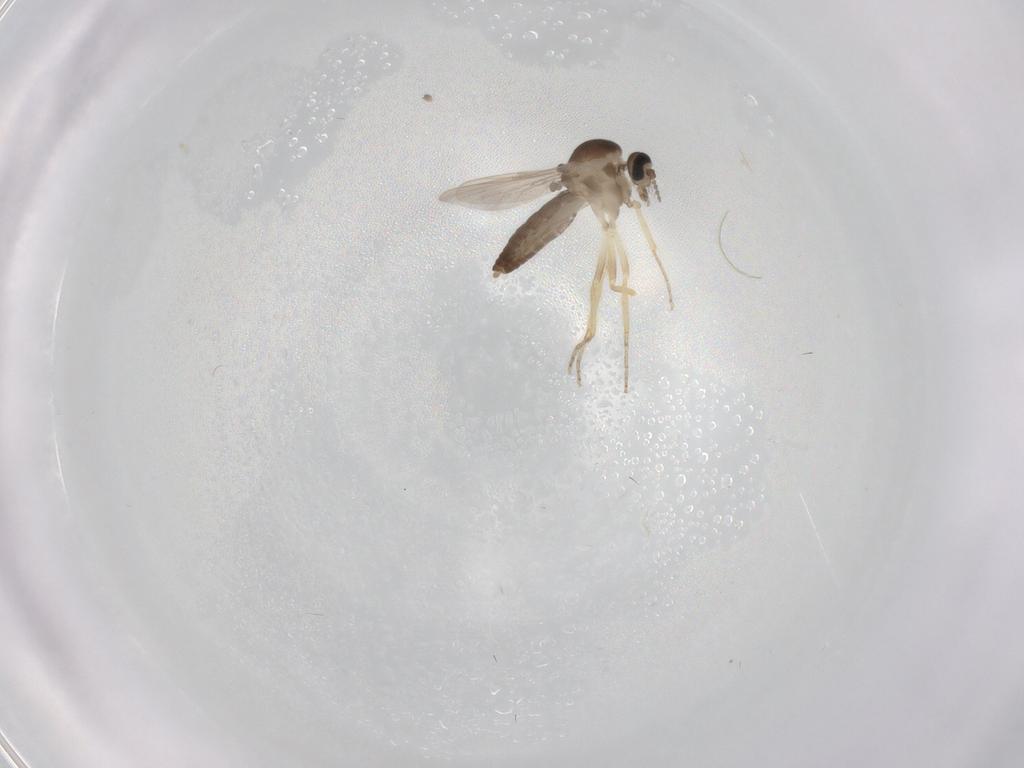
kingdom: Animalia
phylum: Arthropoda
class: Insecta
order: Diptera
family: Ceratopogonidae
